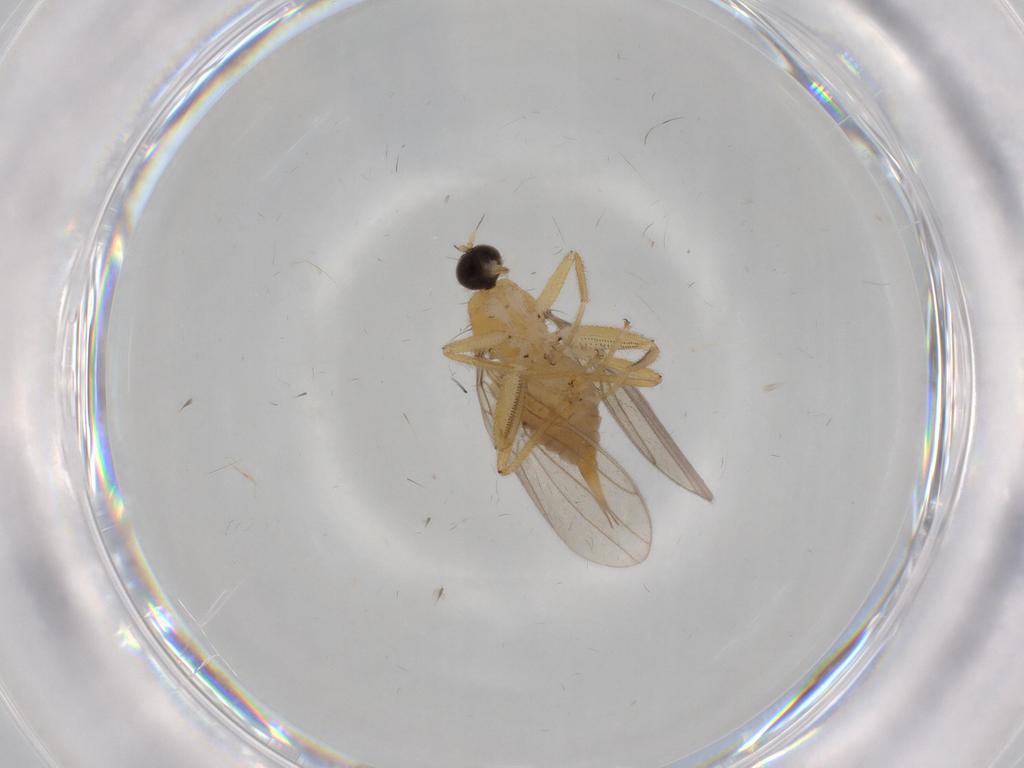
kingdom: Animalia
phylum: Arthropoda
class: Insecta
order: Diptera
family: Hybotidae
